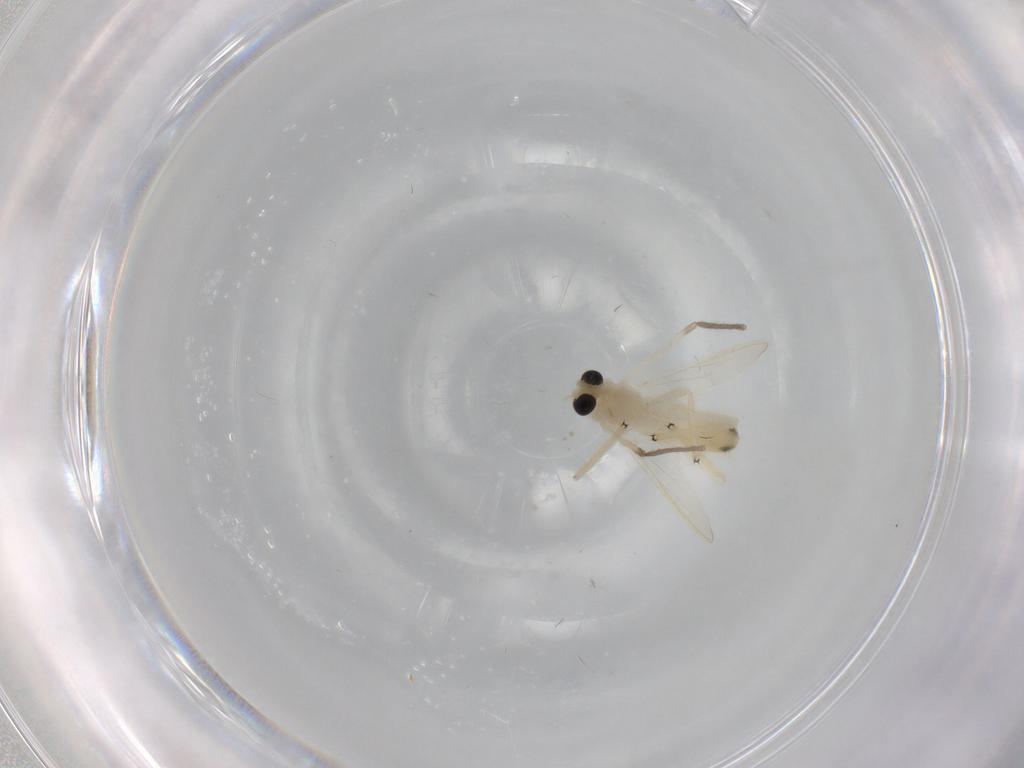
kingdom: Animalia
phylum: Arthropoda
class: Insecta
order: Diptera
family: Chironomidae
